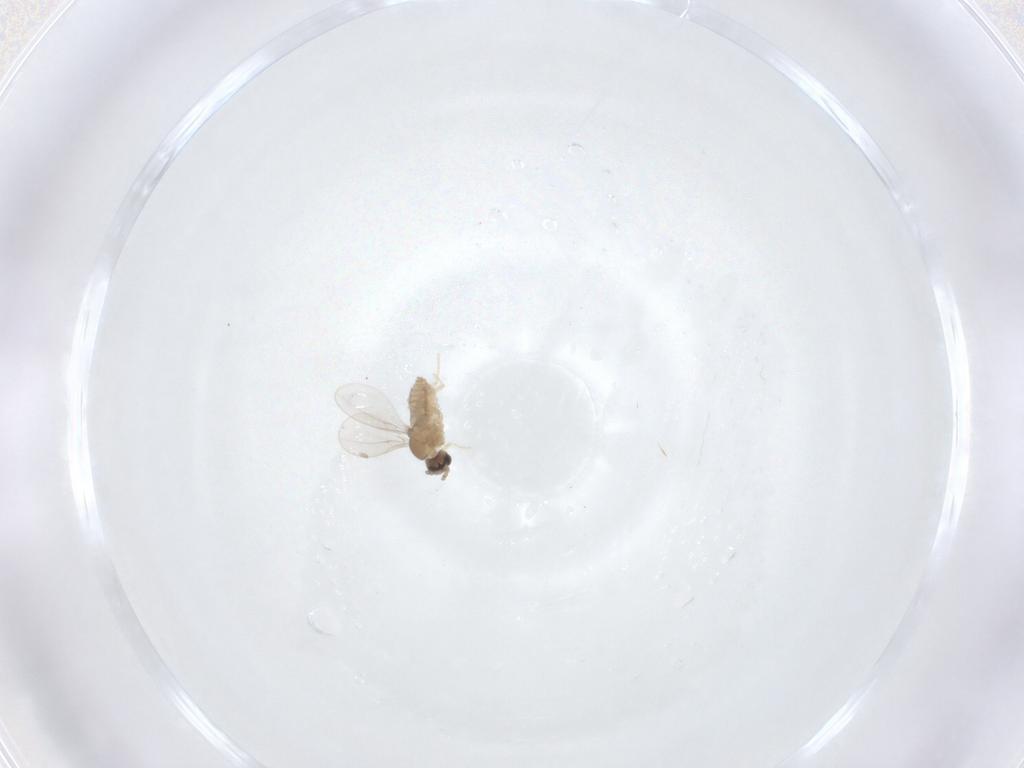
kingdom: Animalia
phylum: Arthropoda
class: Insecta
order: Diptera
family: Cecidomyiidae
